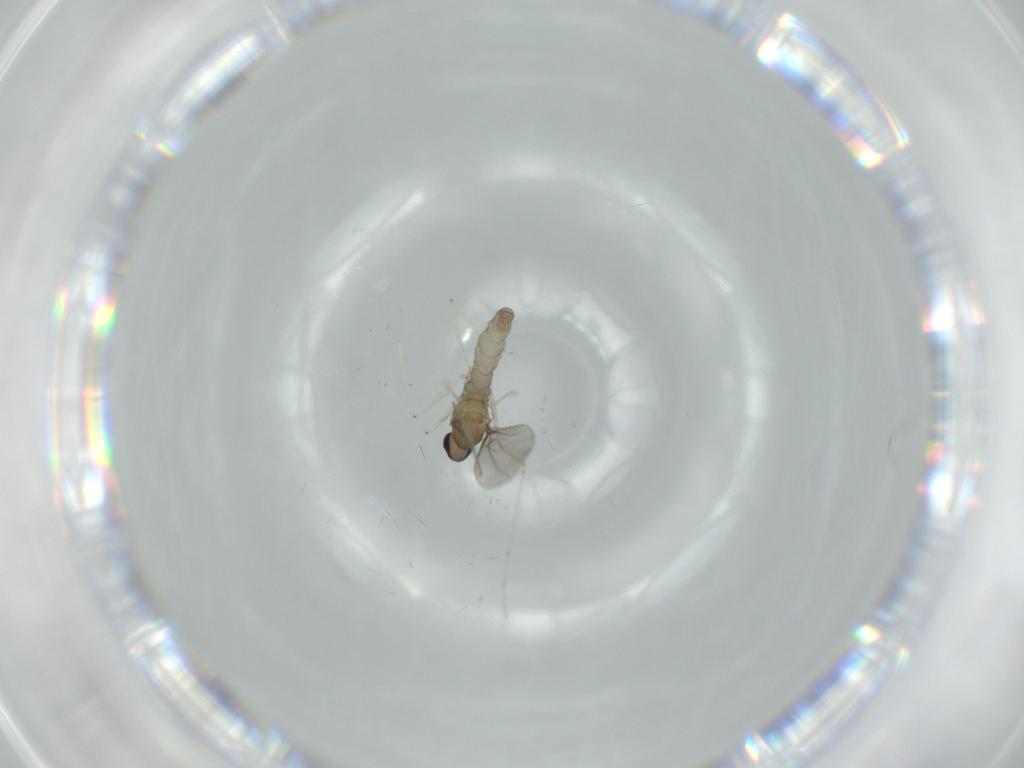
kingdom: Animalia
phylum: Arthropoda
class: Insecta
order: Diptera
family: Cecidomyiidae
